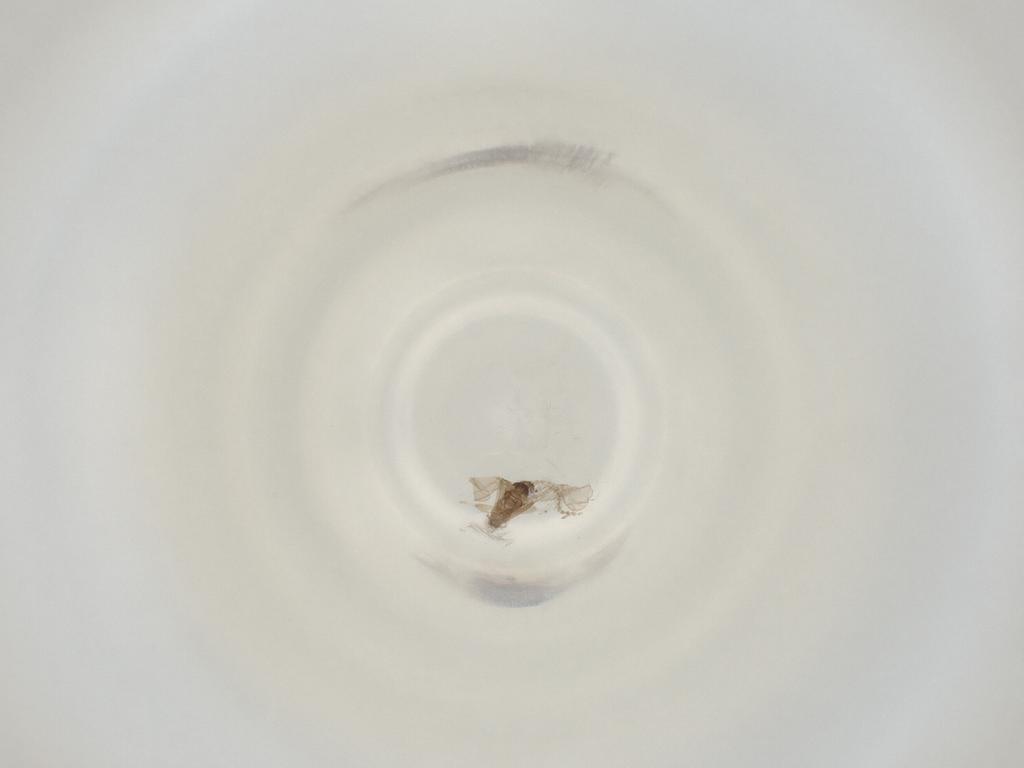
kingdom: Animalia
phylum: Arthropoda
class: Insecta
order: Diptera
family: Cecidomyiidae
